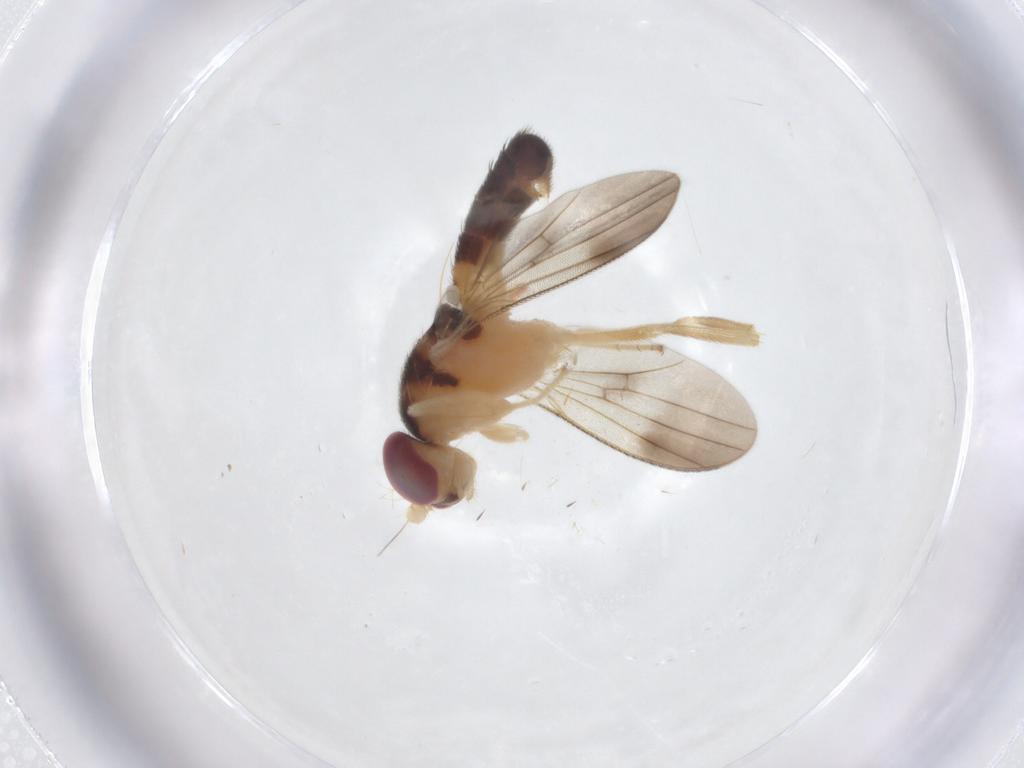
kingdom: Animalia
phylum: Arthropoda
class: Insecta
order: Diptera
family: Clusiidae
